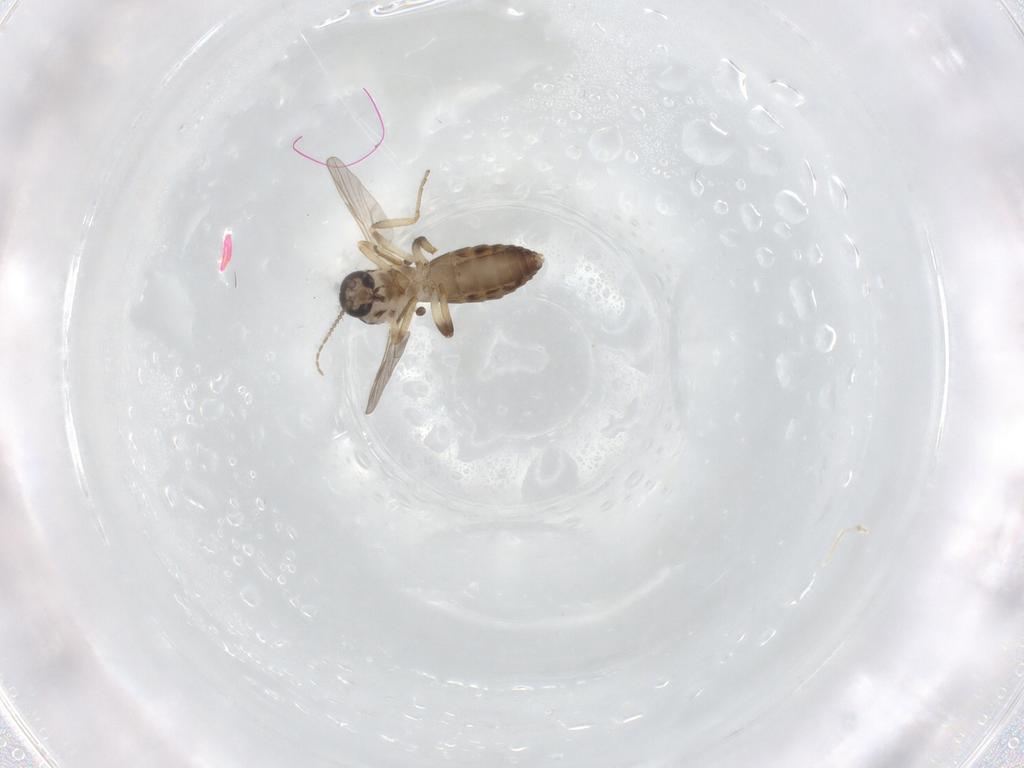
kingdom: Animalia
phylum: Arthropoda
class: Insecta
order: Diptera
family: Ceratopogonidae
